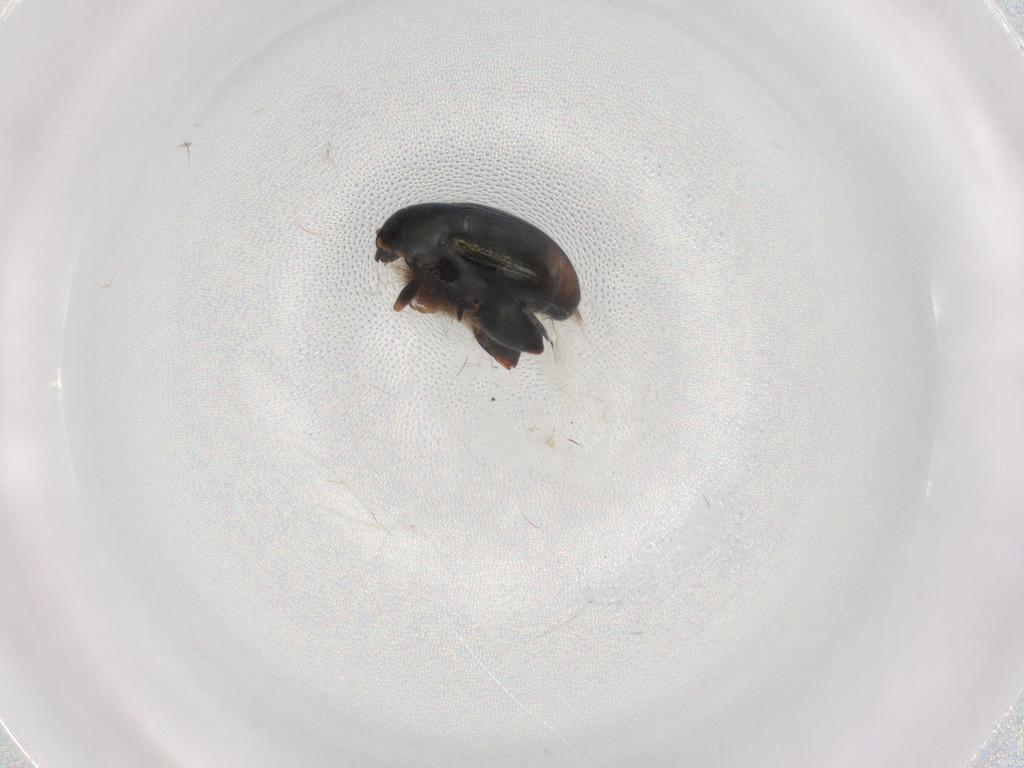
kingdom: Animalia
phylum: Arthropoda
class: Insecta
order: Coleoptera
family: Chrysomelidae
